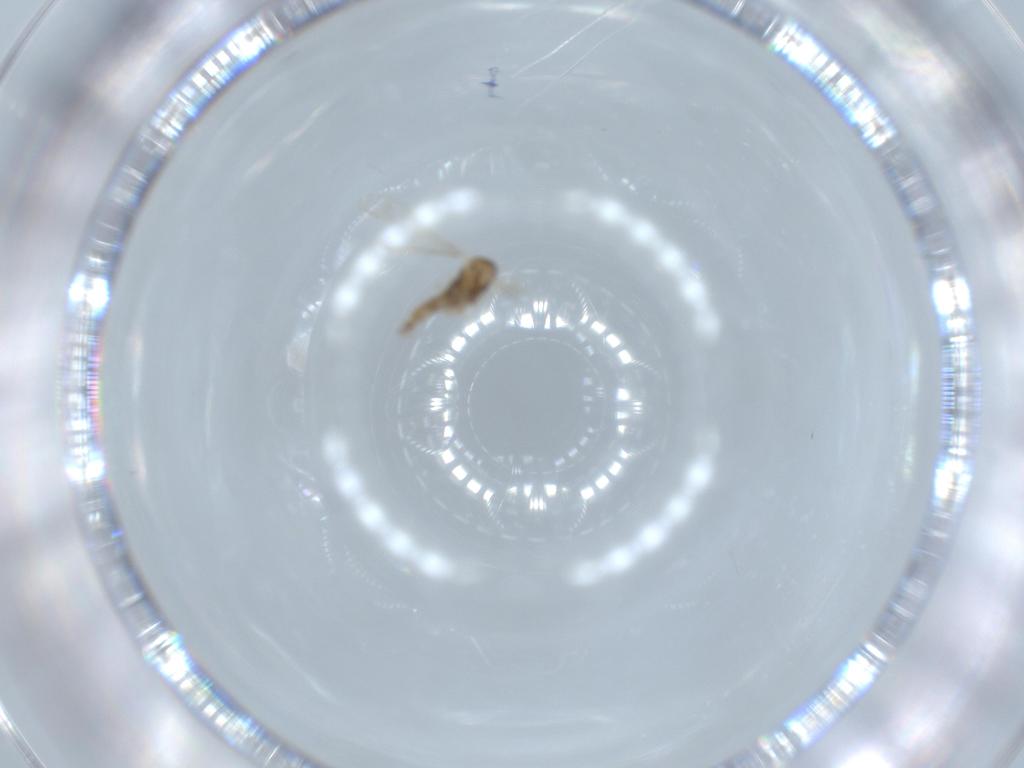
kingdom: Animalia
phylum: Arthropoda
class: Insecta
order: Diptera
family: Cecidomyiidae
